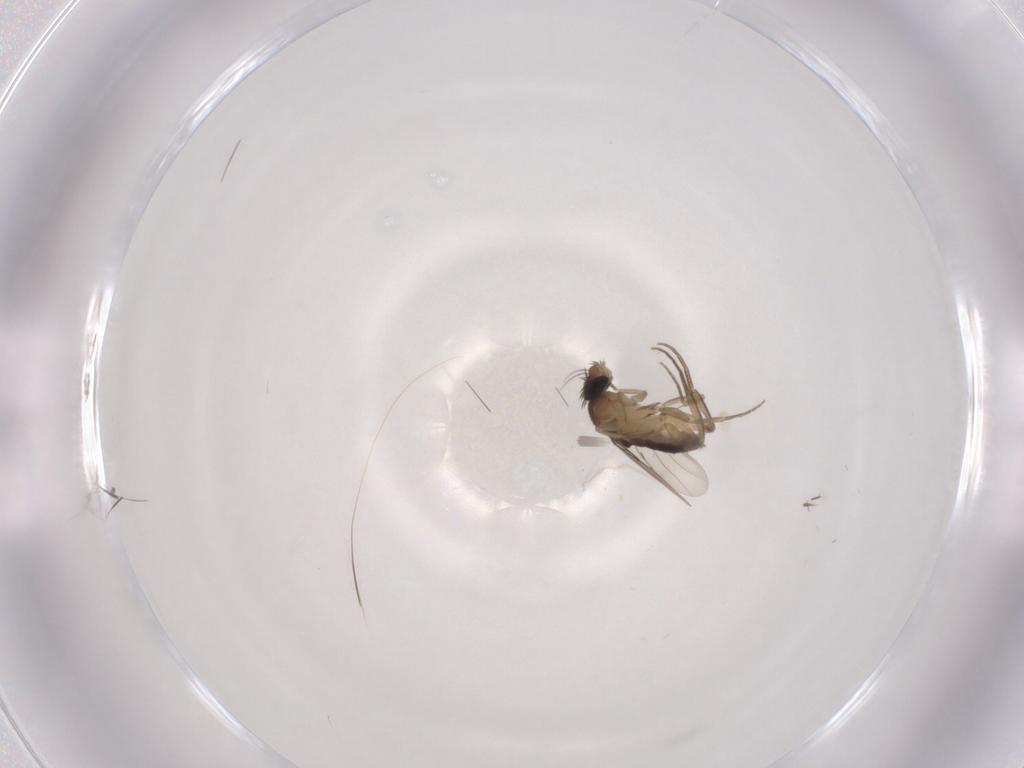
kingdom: Animalia
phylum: Arthropoda
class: Insecta
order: Diptera
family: Phoridae
